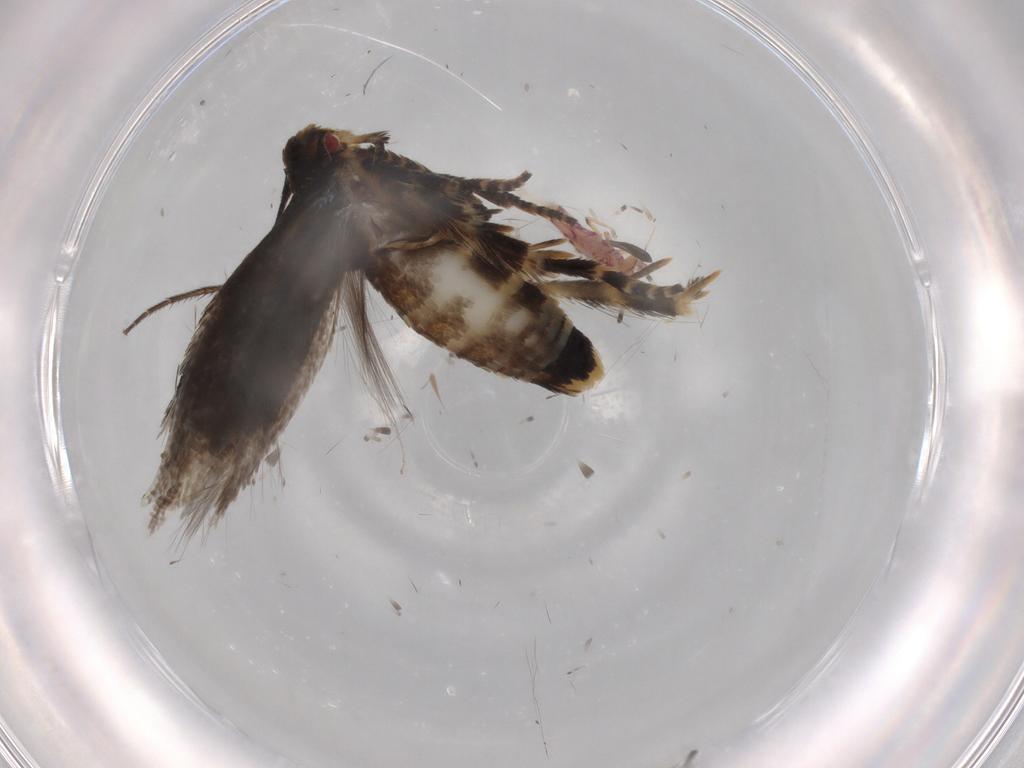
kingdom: Animalia
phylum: Arthropoda
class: Insecta
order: Lepidoptera
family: Momphidae
